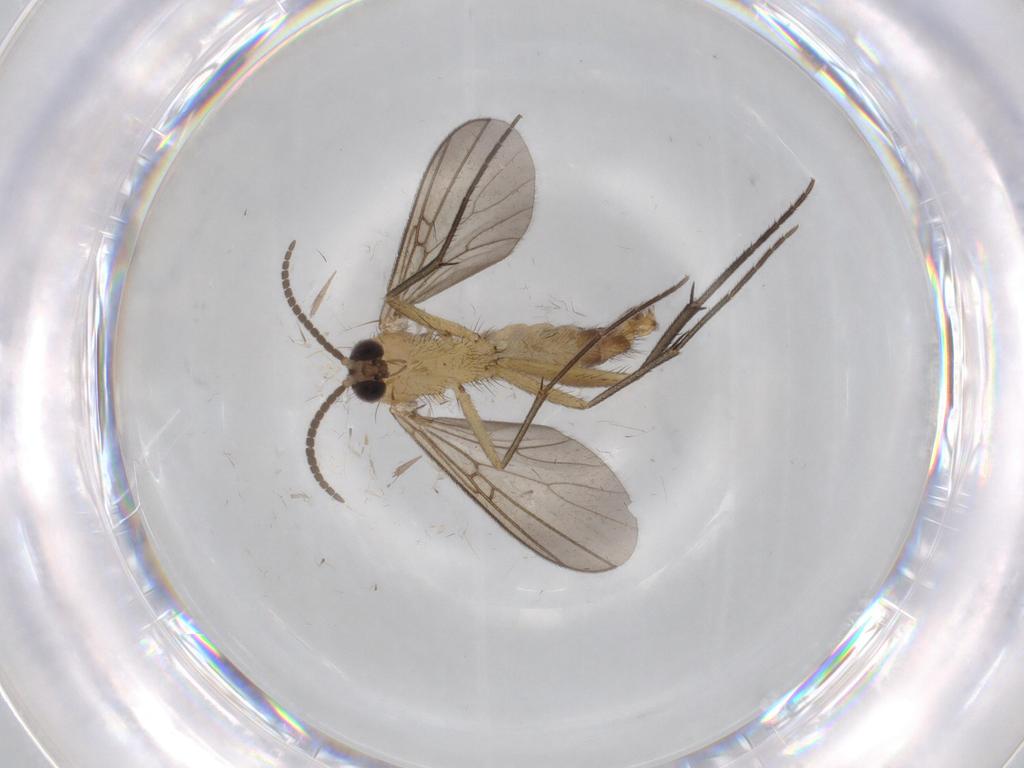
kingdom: Animalia
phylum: Arthropoda
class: Insecta
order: Diptera
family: Mycetophilidae
